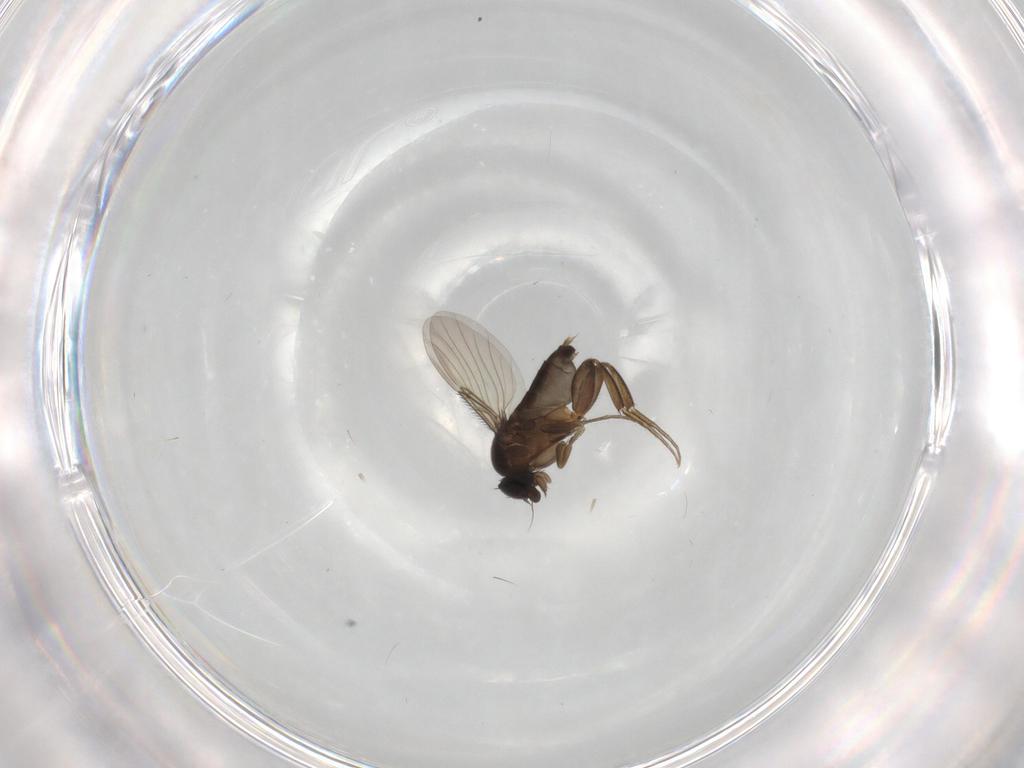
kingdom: Animalia
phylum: Arthropoda
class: Insecta
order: Diptera
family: Chironomidae
